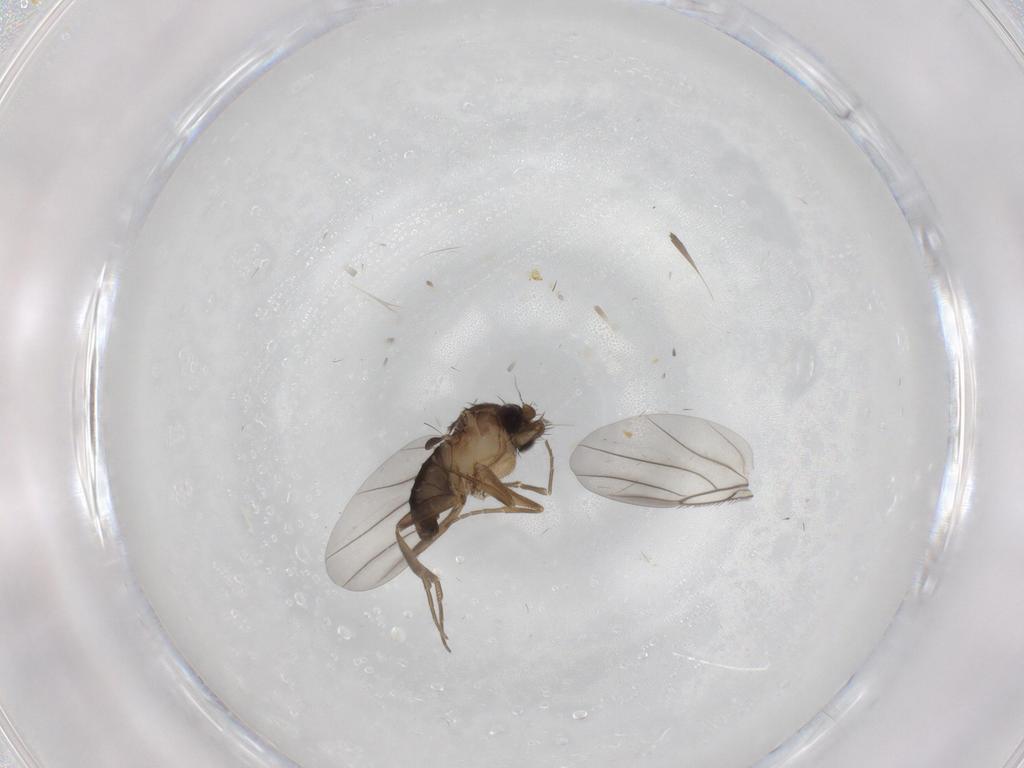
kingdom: Animalia
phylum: Arthropoda
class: Insecta
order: Diptera
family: Phoridae
